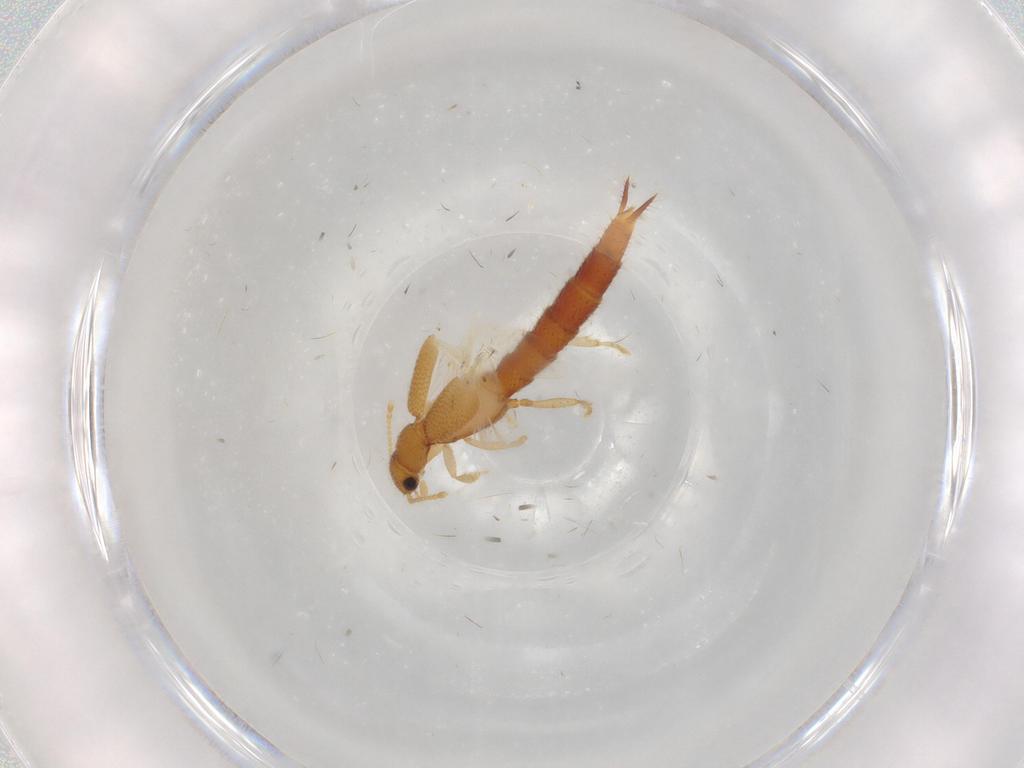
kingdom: Animalia
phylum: Arthropoda
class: Insecta
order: Coleoptera
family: Staphylinidae
